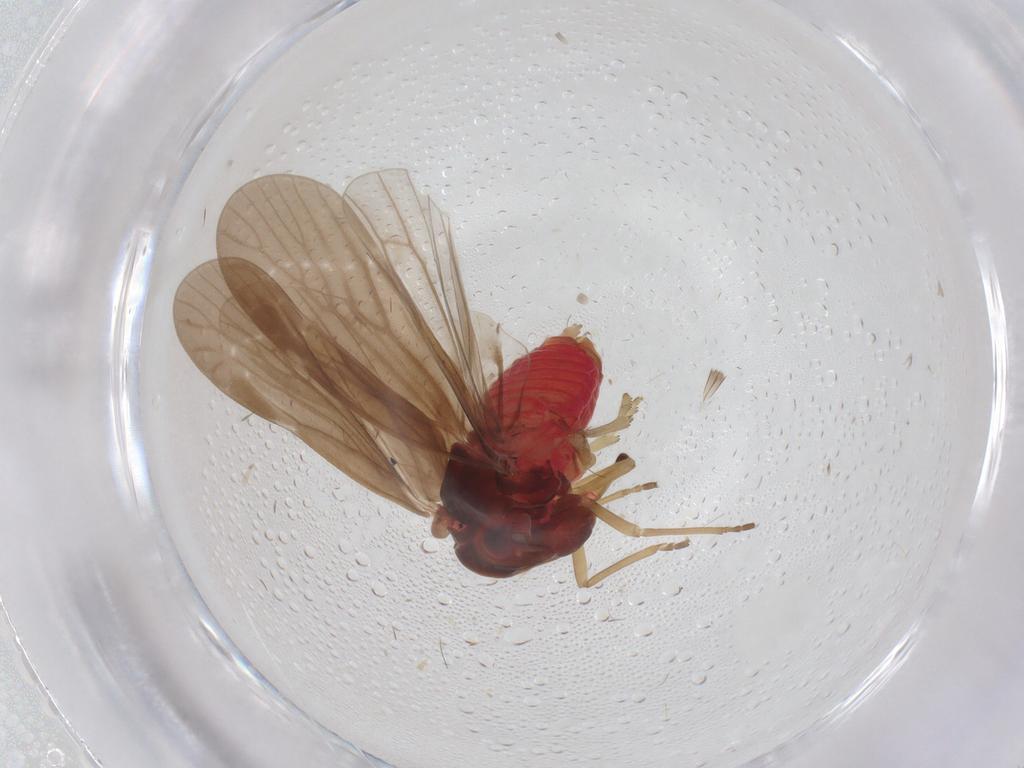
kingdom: Animalia
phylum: Arthropoda
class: Insecta
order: Hemiptera
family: Derbidae
